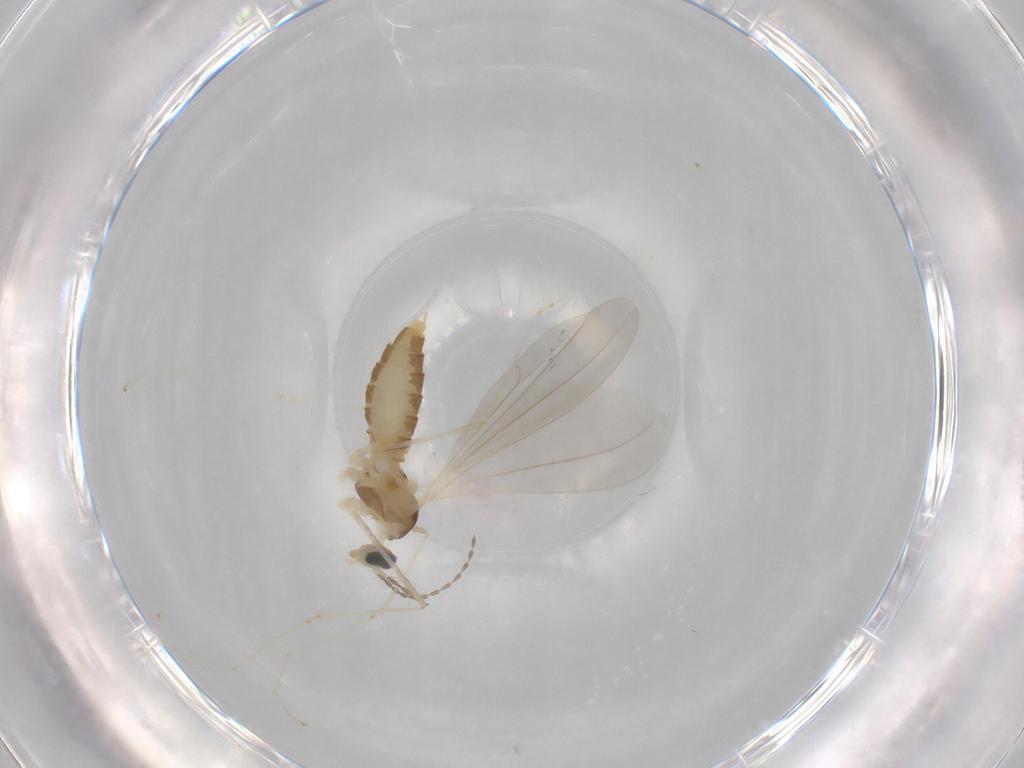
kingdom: Animalia
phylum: Arthropoda
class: Insecta
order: Diptera
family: Cecidomyiidae
